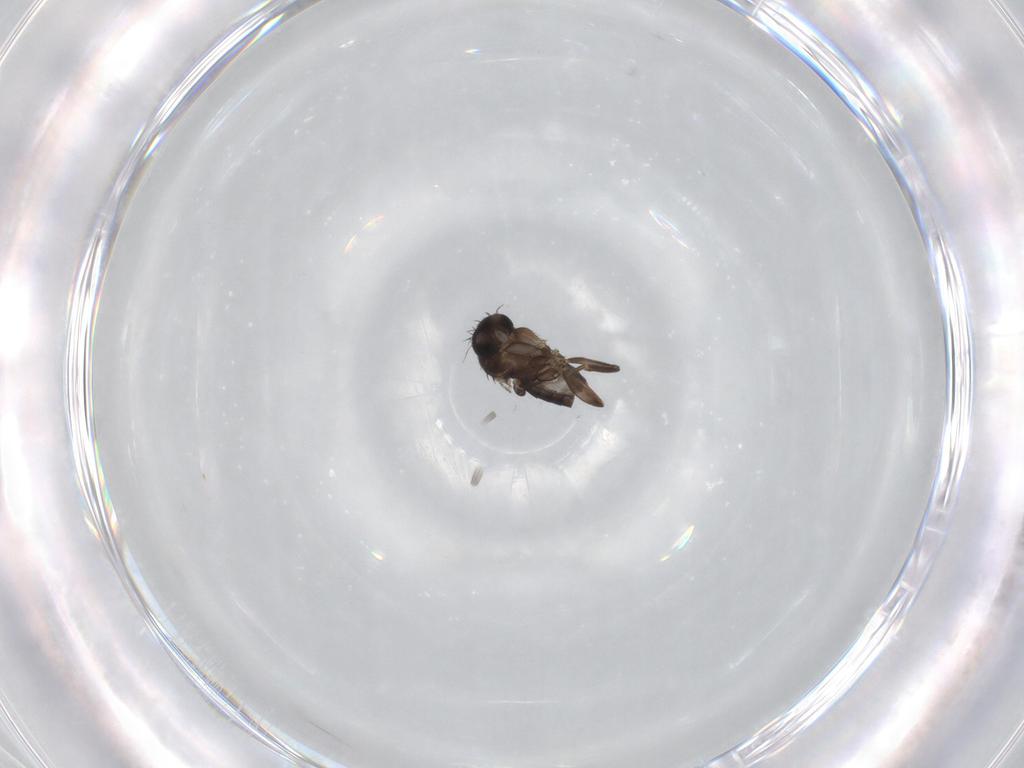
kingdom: Animalia
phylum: Arthropoda
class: Insecta
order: Diptera
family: Phoridae
